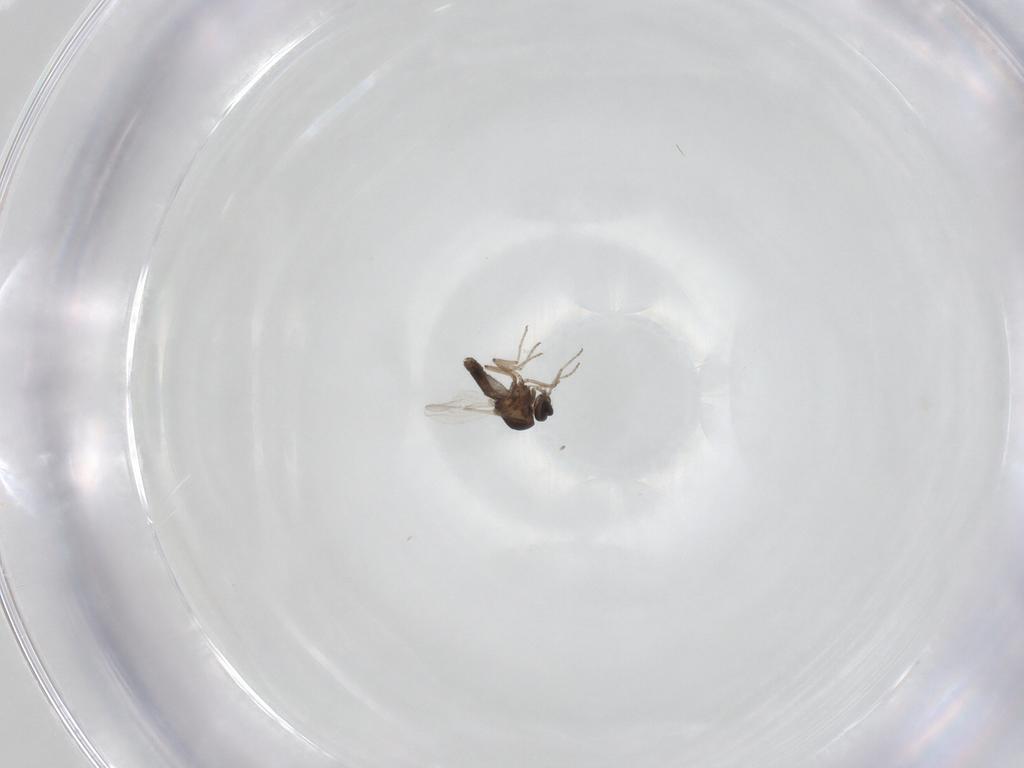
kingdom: Animalia
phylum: Arthropoda
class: Insecta
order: Diptera
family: Ceratopogonidae
